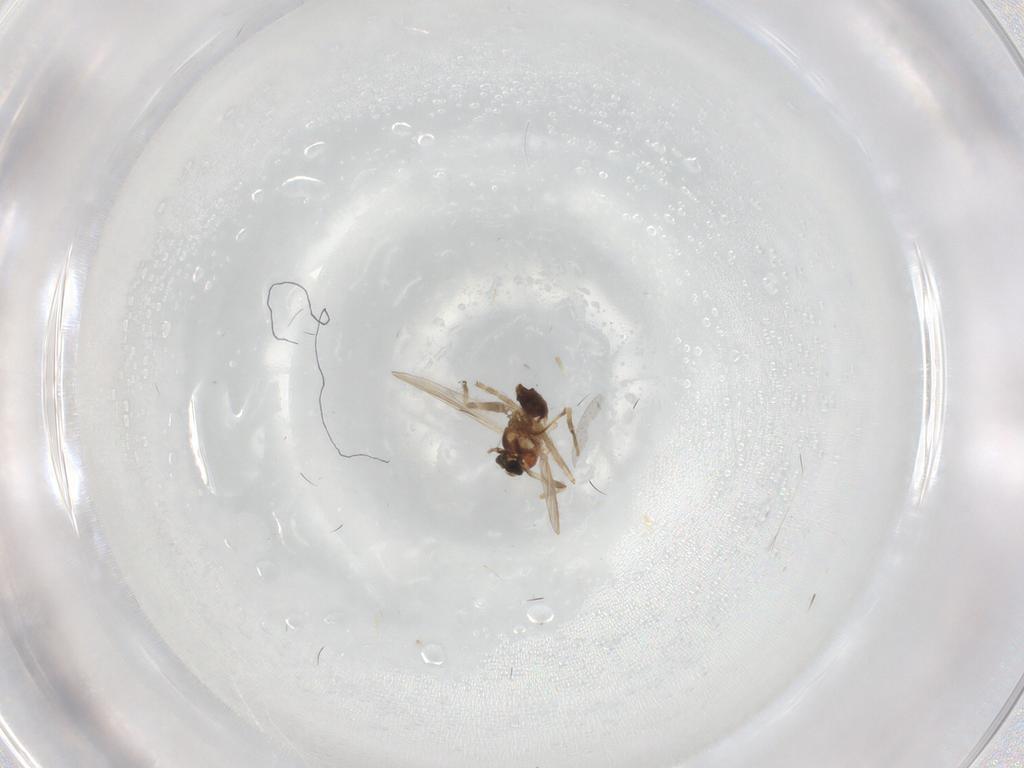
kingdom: Animalia
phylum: Arthropoda
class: Insecta
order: Diptera
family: Chironomidae
